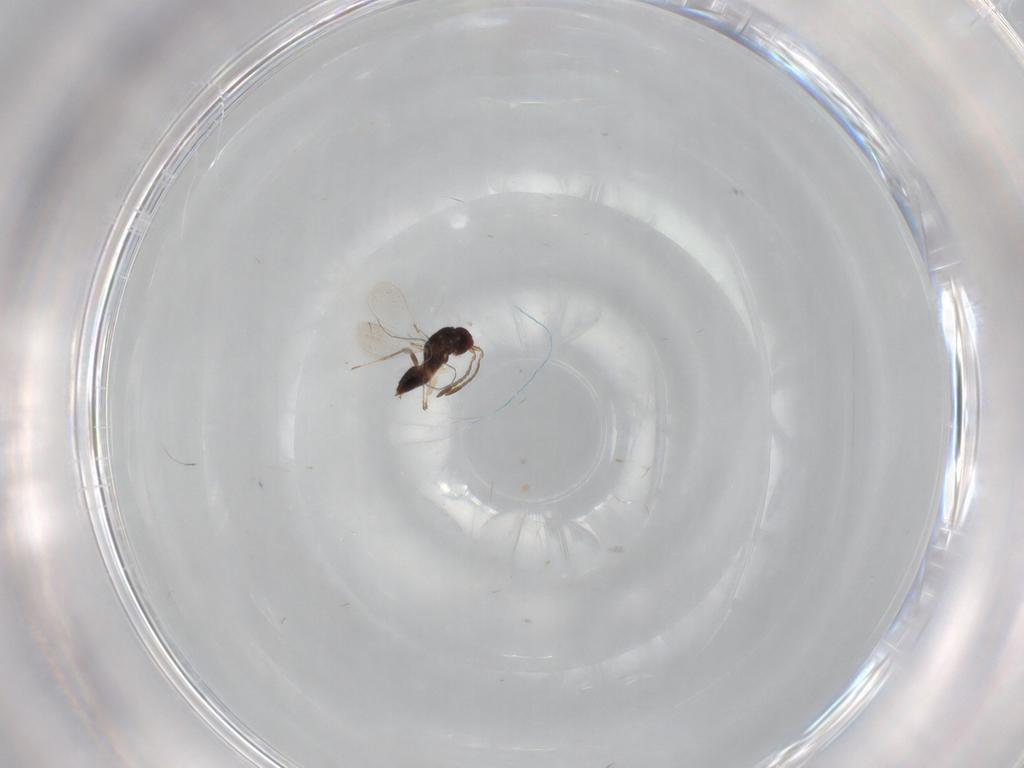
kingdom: Animalia
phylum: Arthropoda
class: Insecta
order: Hymenoptera
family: Mymaridae
